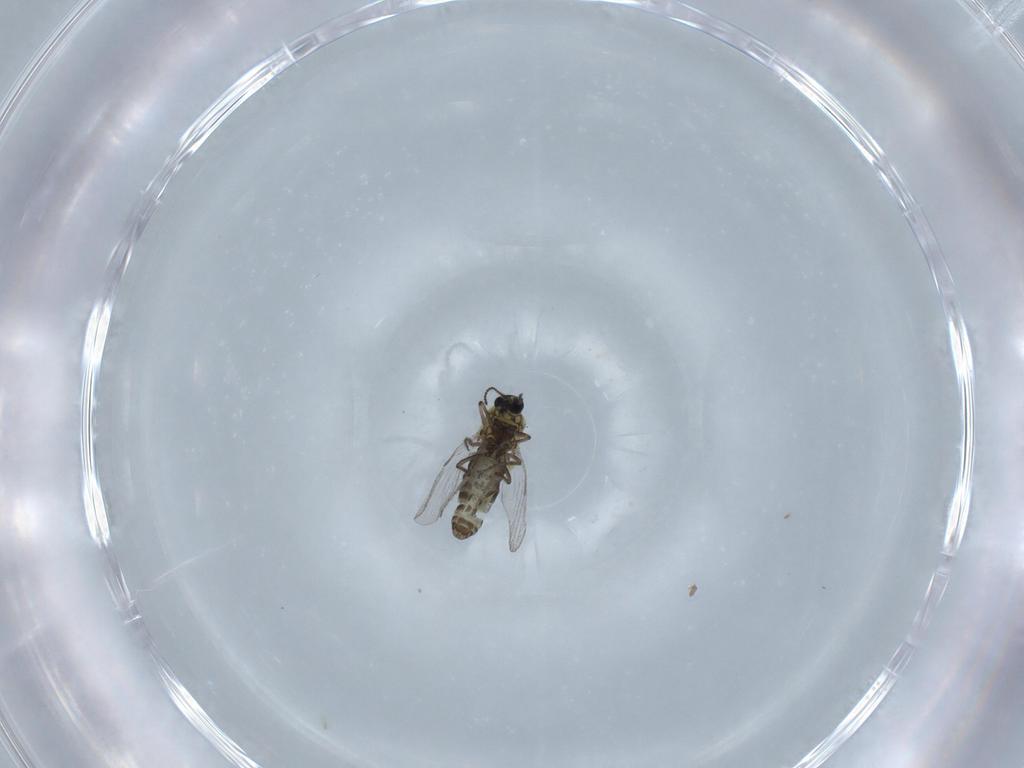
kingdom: Animalia
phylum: Arthropoda
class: Insecta
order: Diptera
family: Ceratopogonidae
